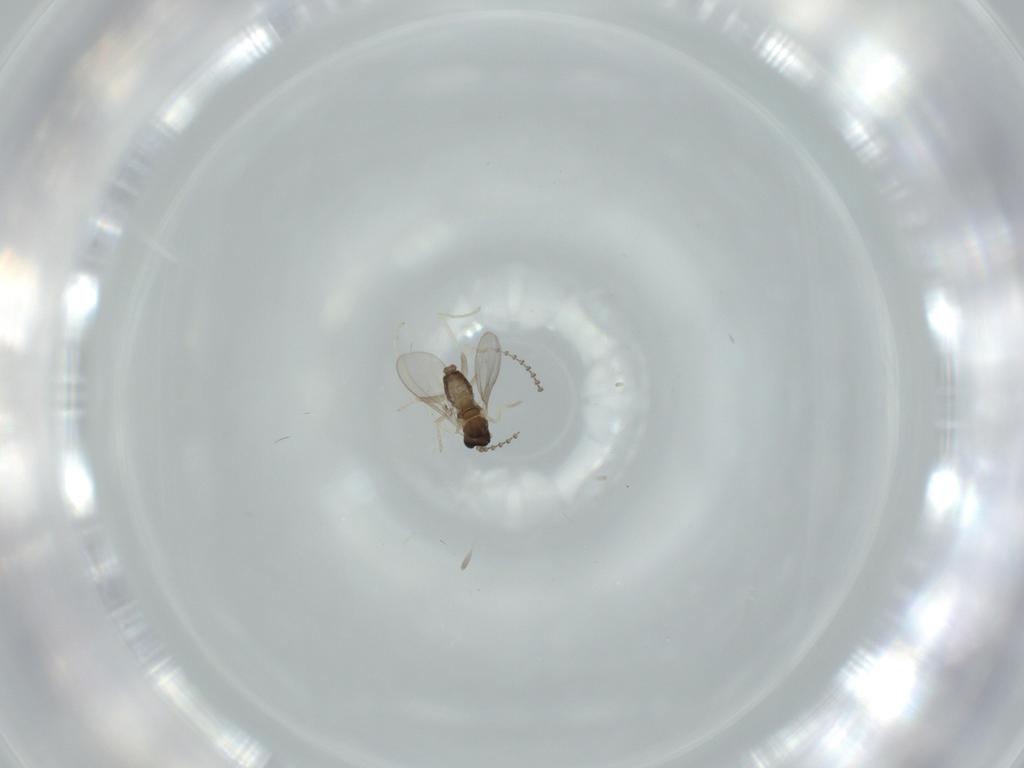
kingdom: Animalia
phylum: Arthropoda
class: Insecta
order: Diptera
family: Cecidomyiidae
